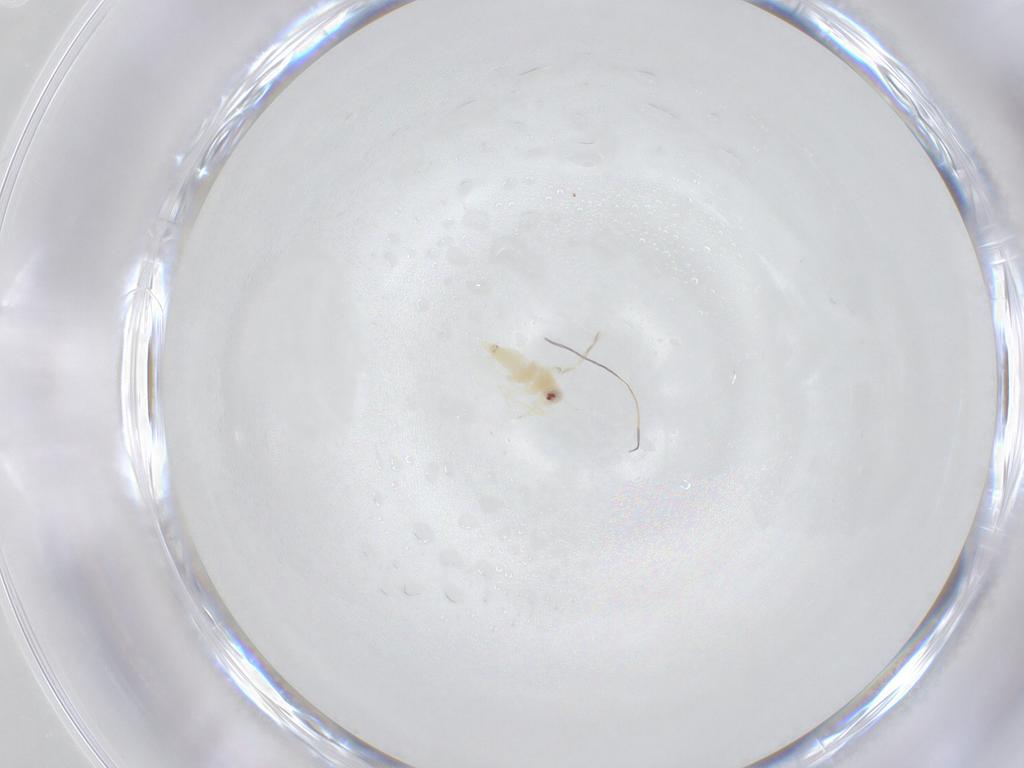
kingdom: Animalia
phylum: Arthropoda
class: Insecta
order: Hemiptera
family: Aleyrodidae
